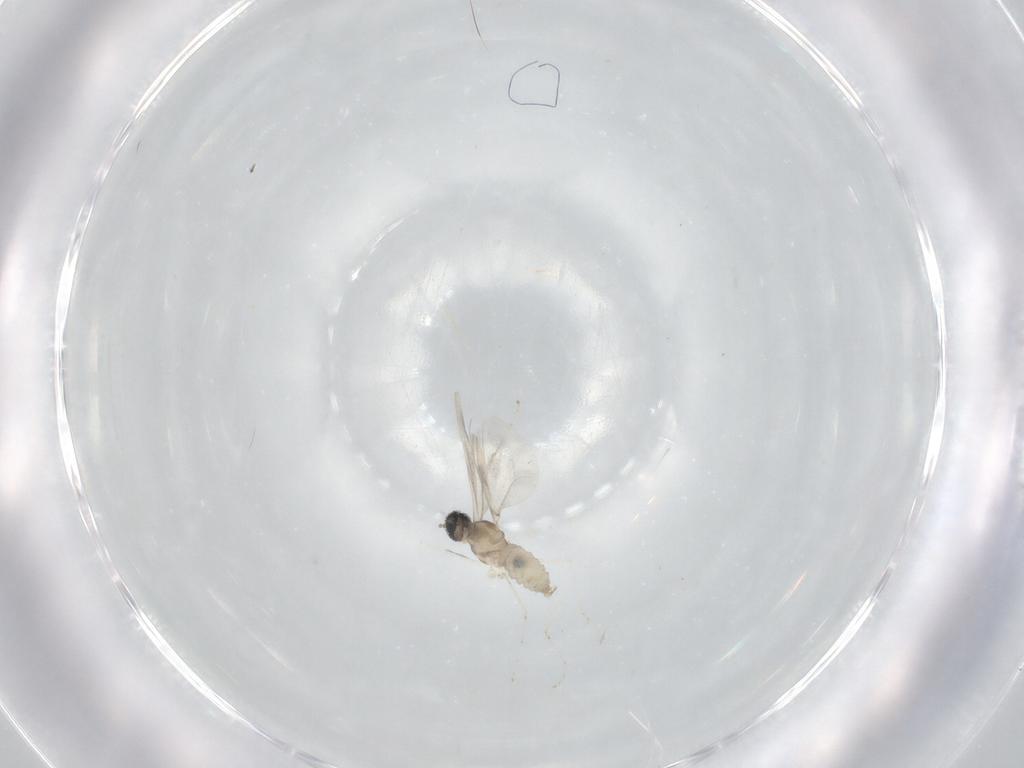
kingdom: Animalia
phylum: Arthropoda
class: Insecta
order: Diptera
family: Cecidomyiidae
